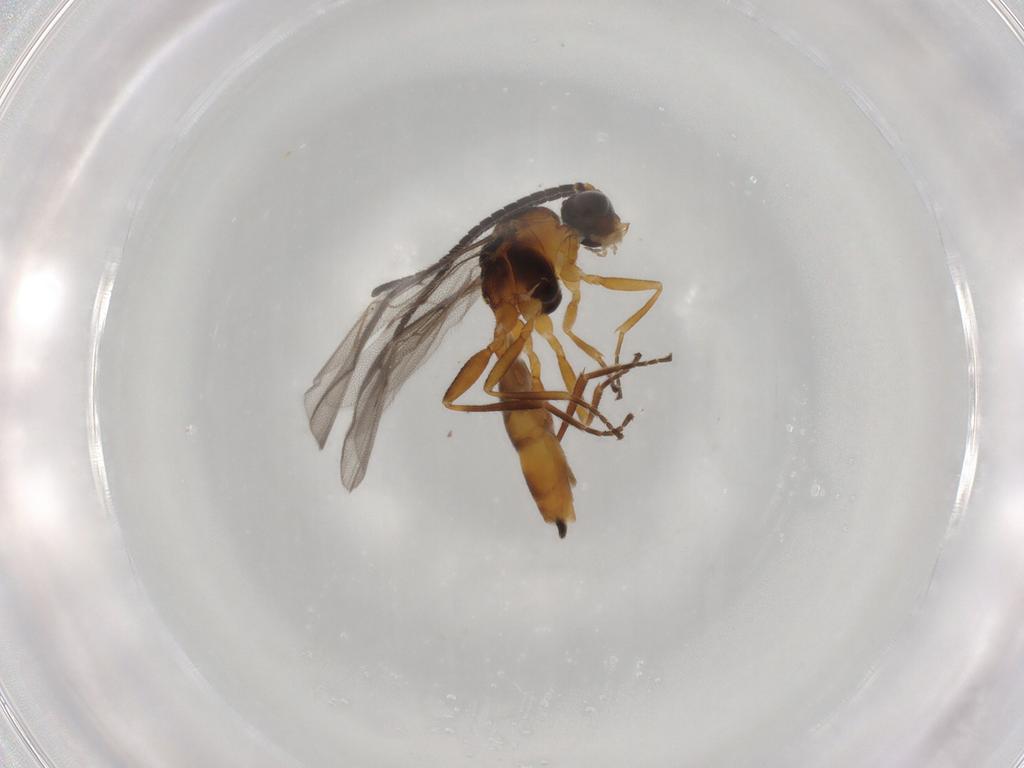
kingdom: Animalia
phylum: Arthropoda
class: Insecta
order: Hymenoptera
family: Braconidae
